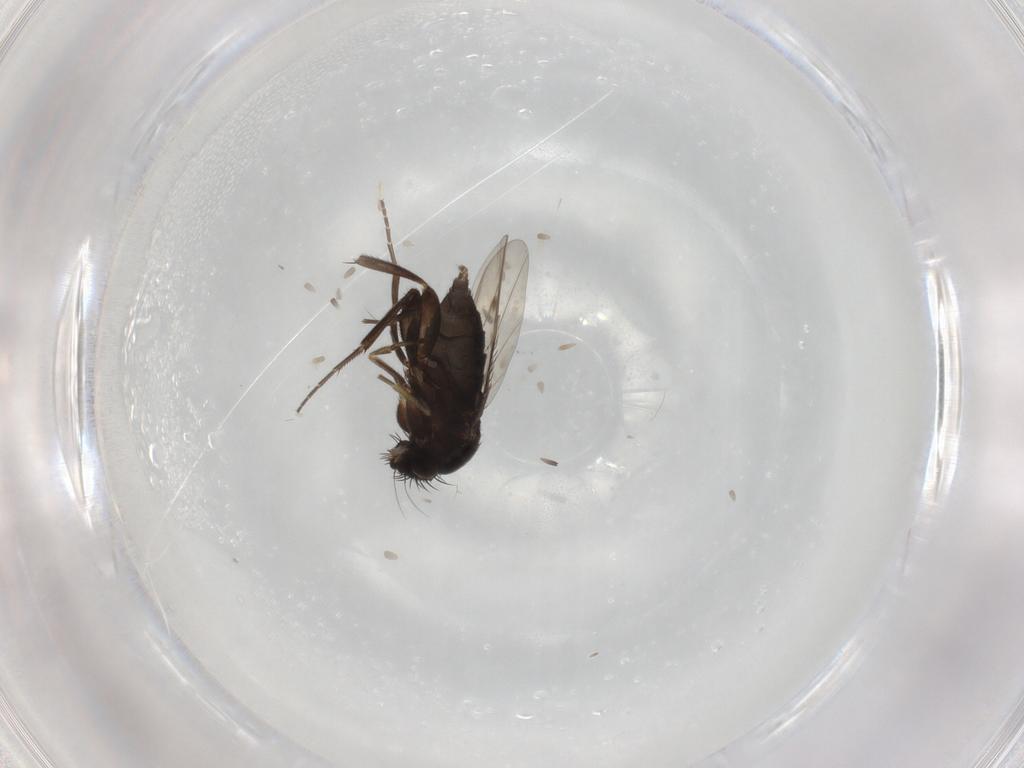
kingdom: Animalia
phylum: Arthropoda
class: Insecta
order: Diptera
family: Phoridae
